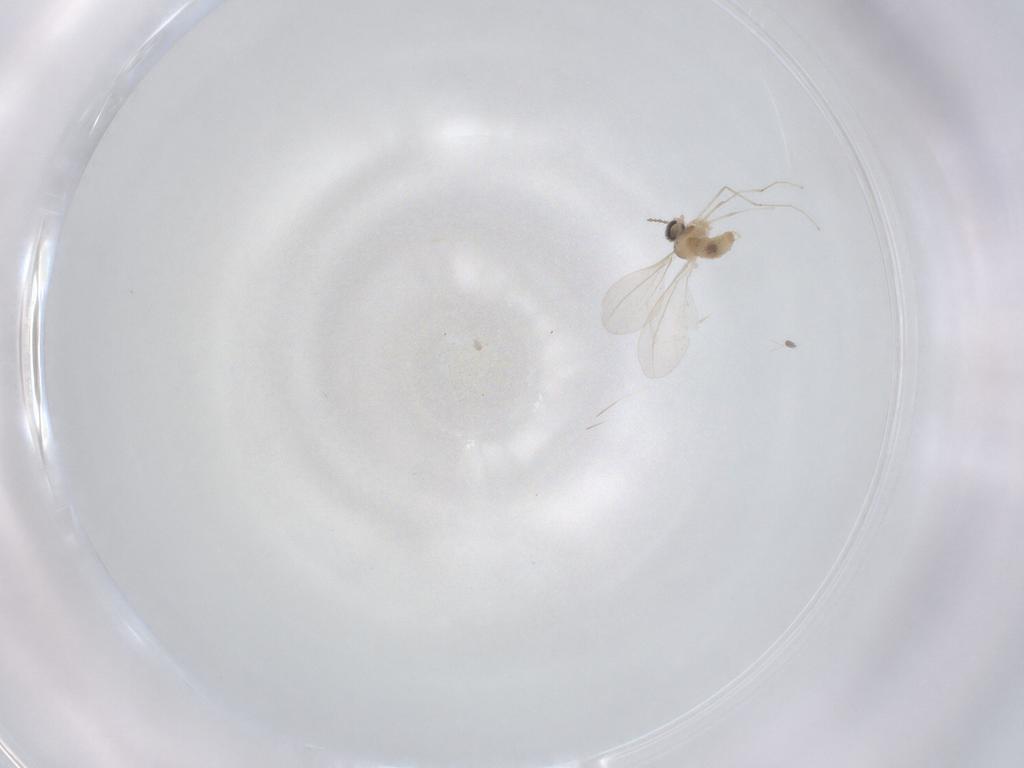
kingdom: Animalia
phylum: Arthropoda
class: Insecta
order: Diptera
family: Cecidomyiidae
